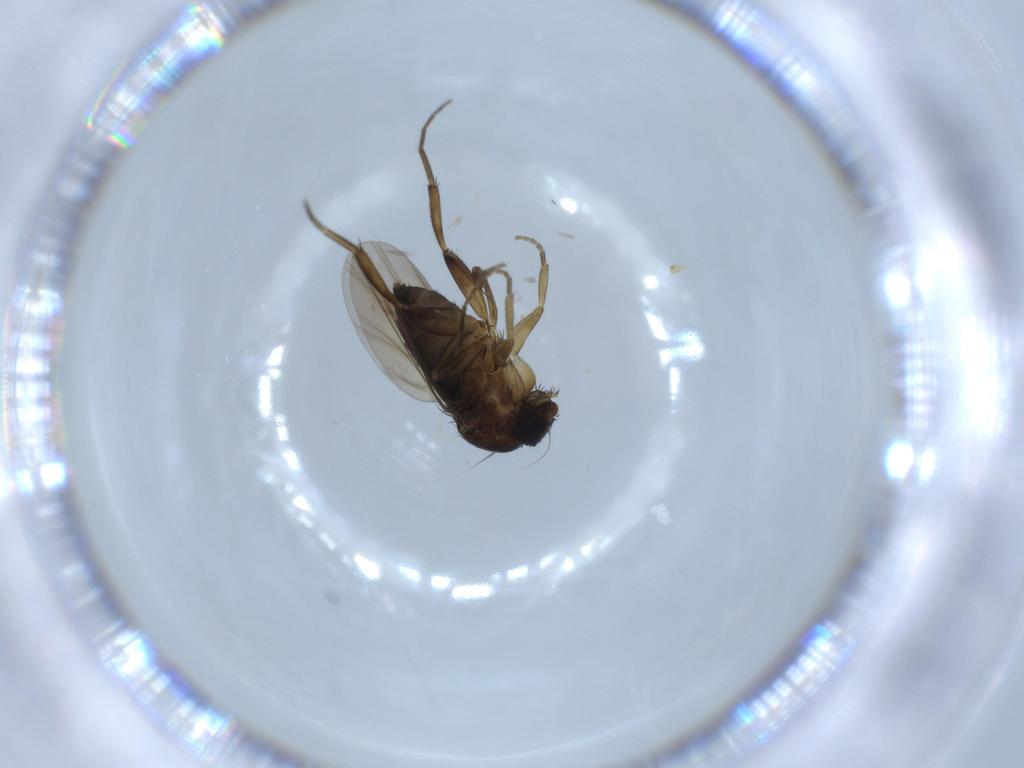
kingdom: Animalia
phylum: Arthropoda
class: Insecta
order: Diptera
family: Phoridae
